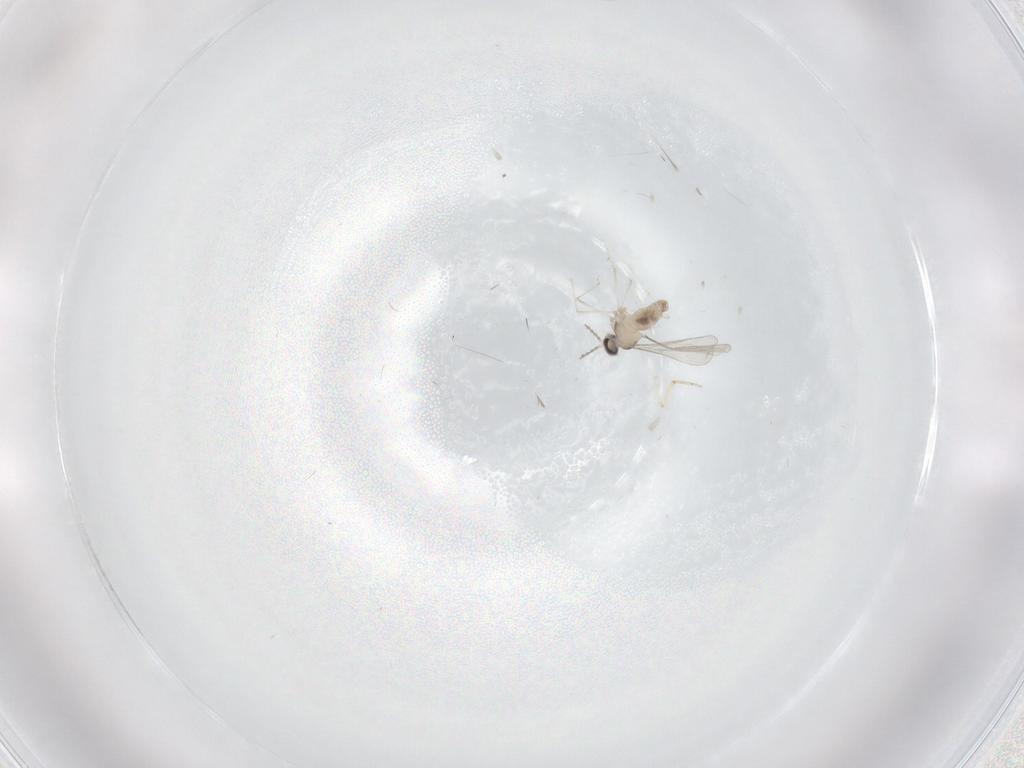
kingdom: Animalia
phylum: Arthropoda
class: Insecta
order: Diptera
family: Cecidomyiidae
